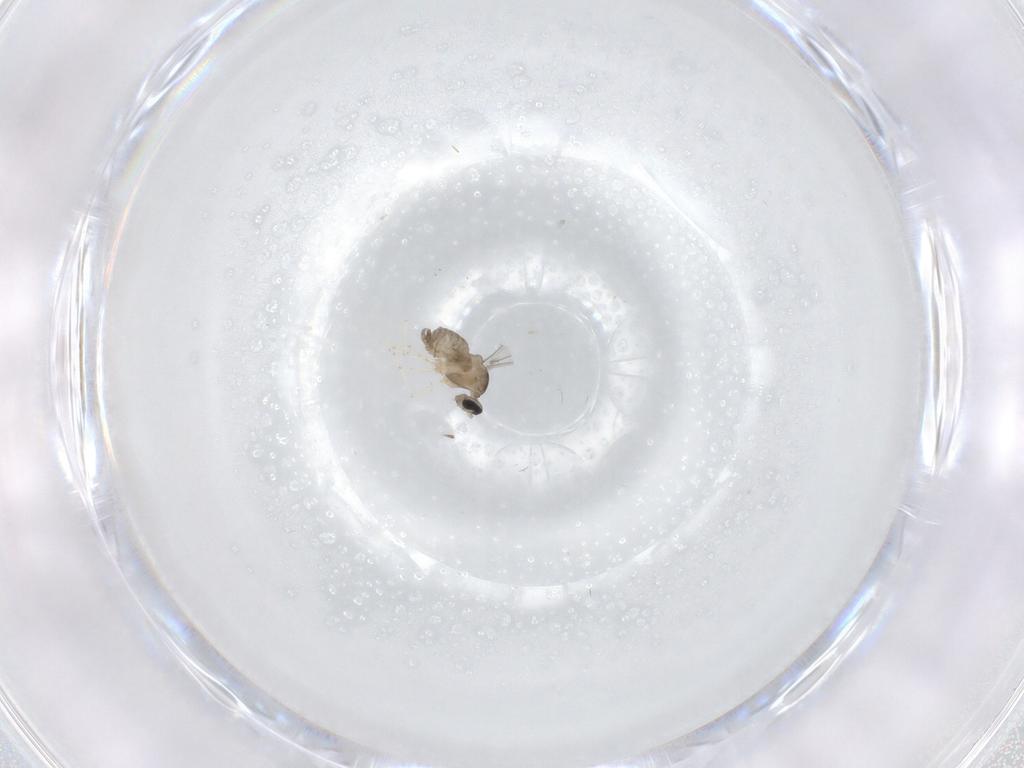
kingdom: Animalia
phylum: Arthropoda
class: Insecta
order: Diptera
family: Cecidomyiidae
